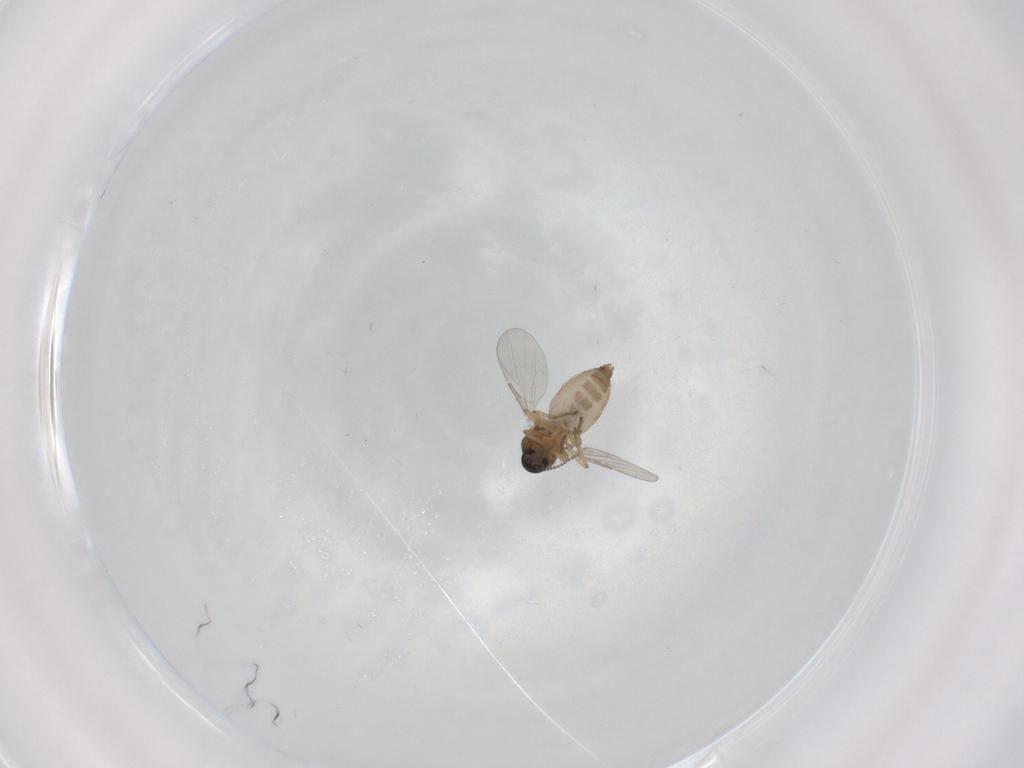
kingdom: Animalia
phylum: Arthropoda
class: Insecta
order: Diptera
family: Ceratopogonidae
